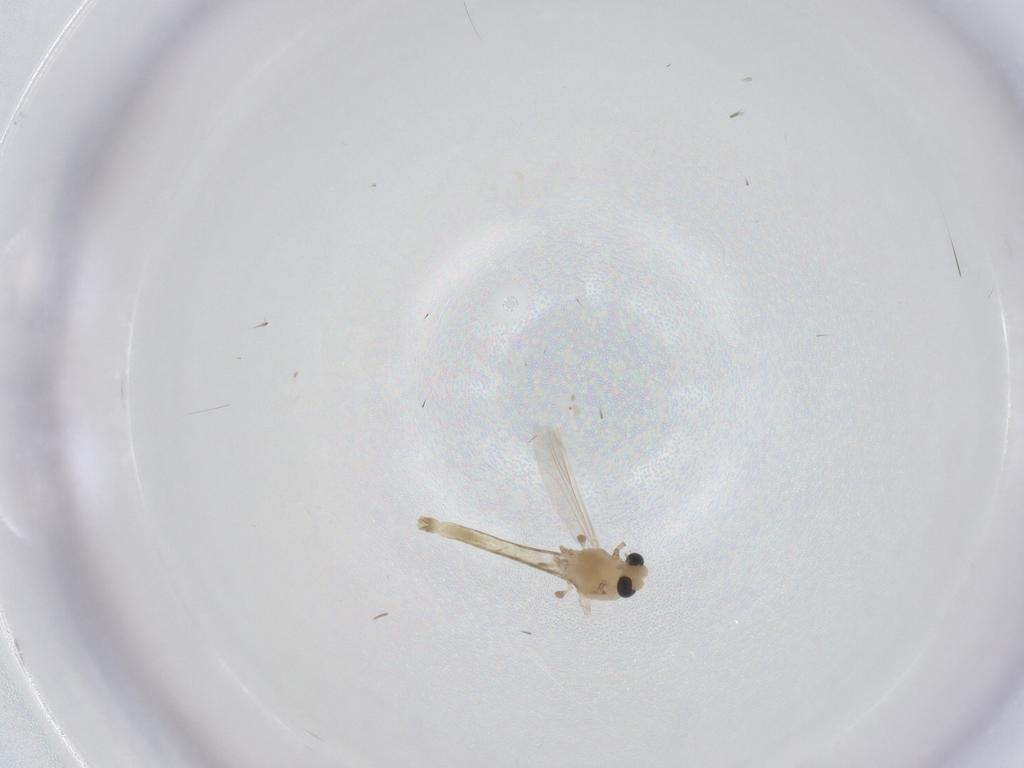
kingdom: Animalia
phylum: Arthropoda
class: Insecta
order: Diptera
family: Chironomidae
